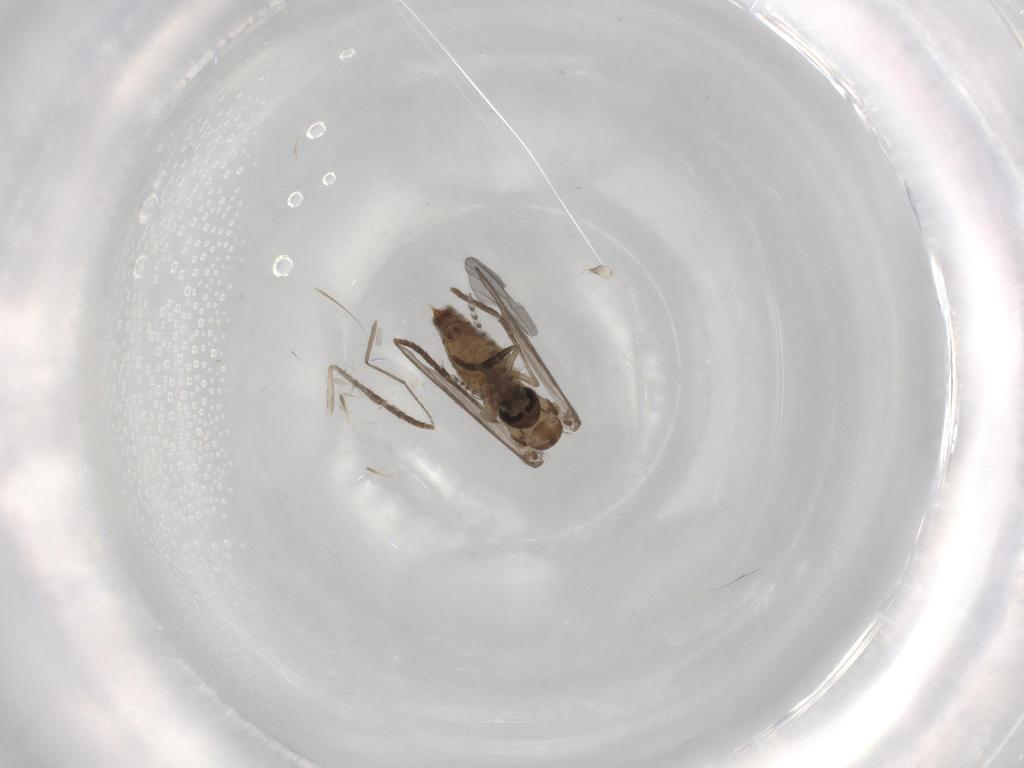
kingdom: Animalia
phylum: Arthropoda
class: Insecta
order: Diptera
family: Psychodidae
